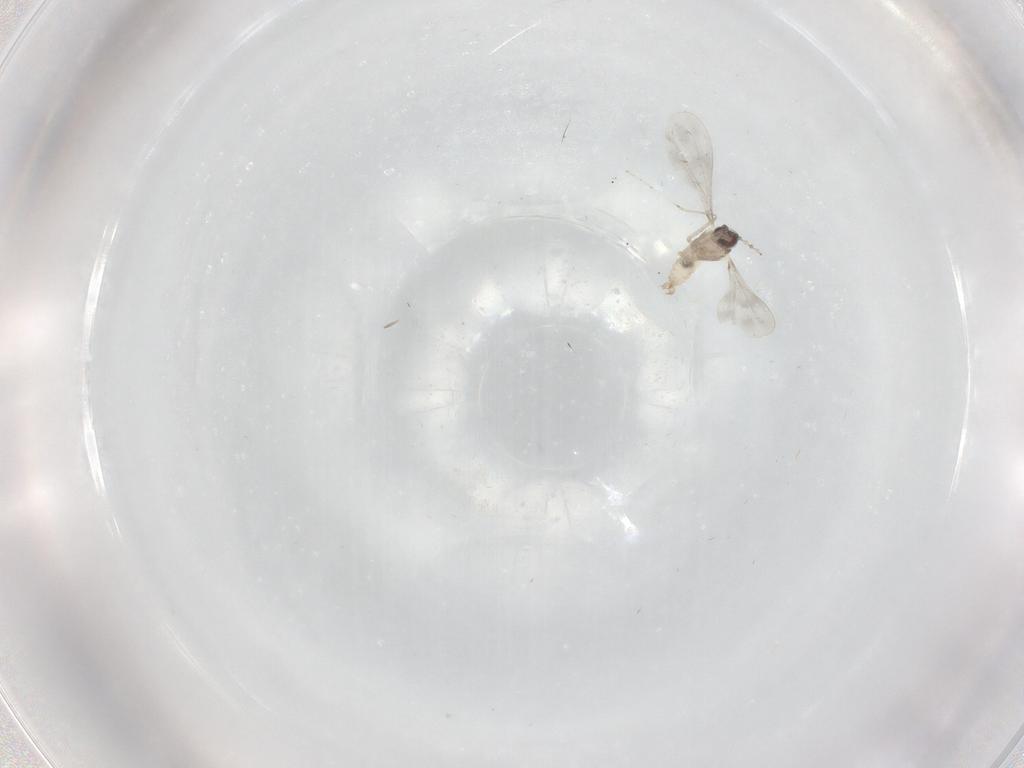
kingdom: Animalia
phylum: Arthropoda
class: Insecta
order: Diptera
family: Cecidomyiidae
